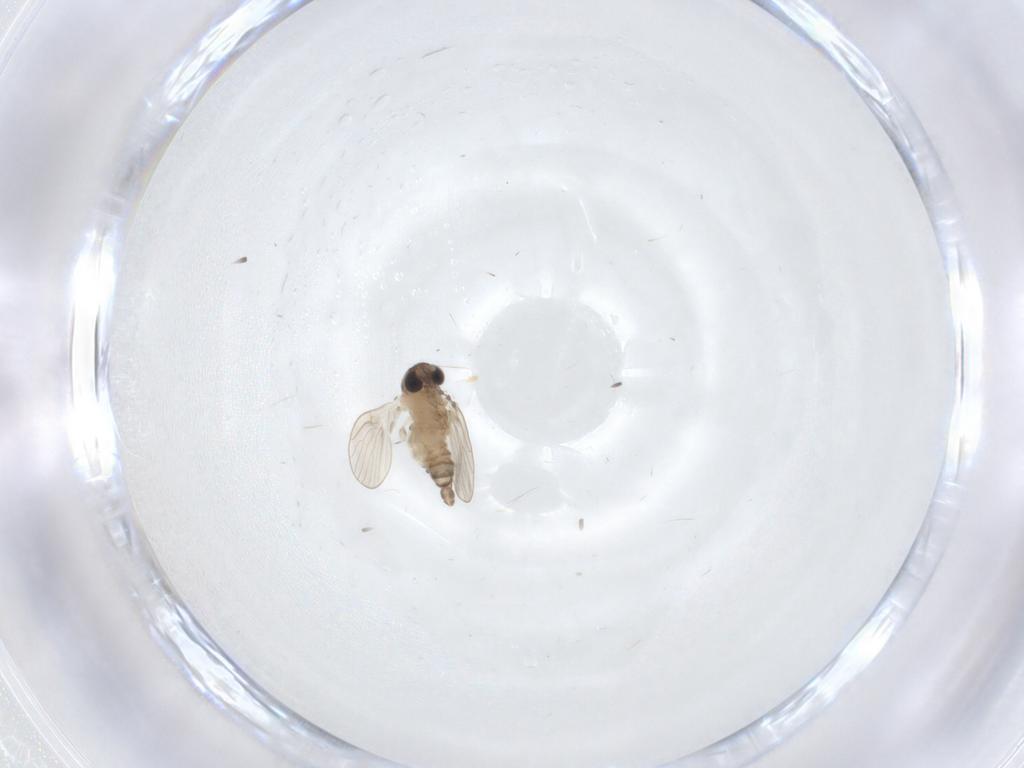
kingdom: Animalia
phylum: Arthropoda
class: Insecta
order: Diptera
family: Psychodidae
